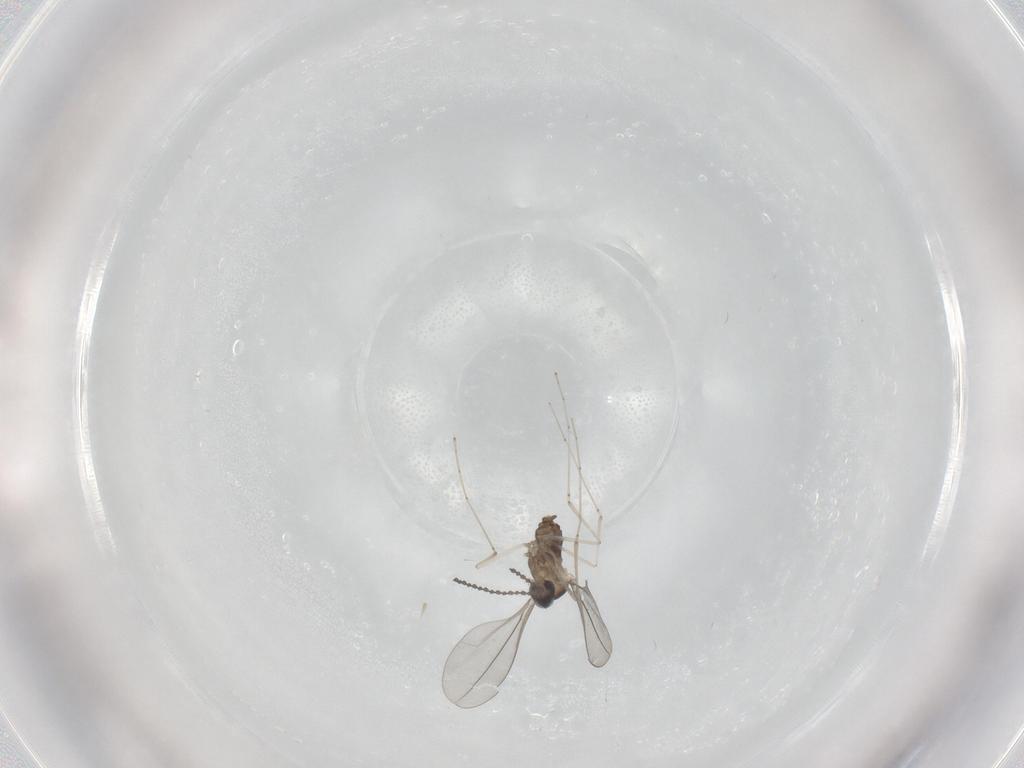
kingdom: Animalia
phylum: Arthropoda
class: Insecta
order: Diptera
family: Cecidomyiidae
